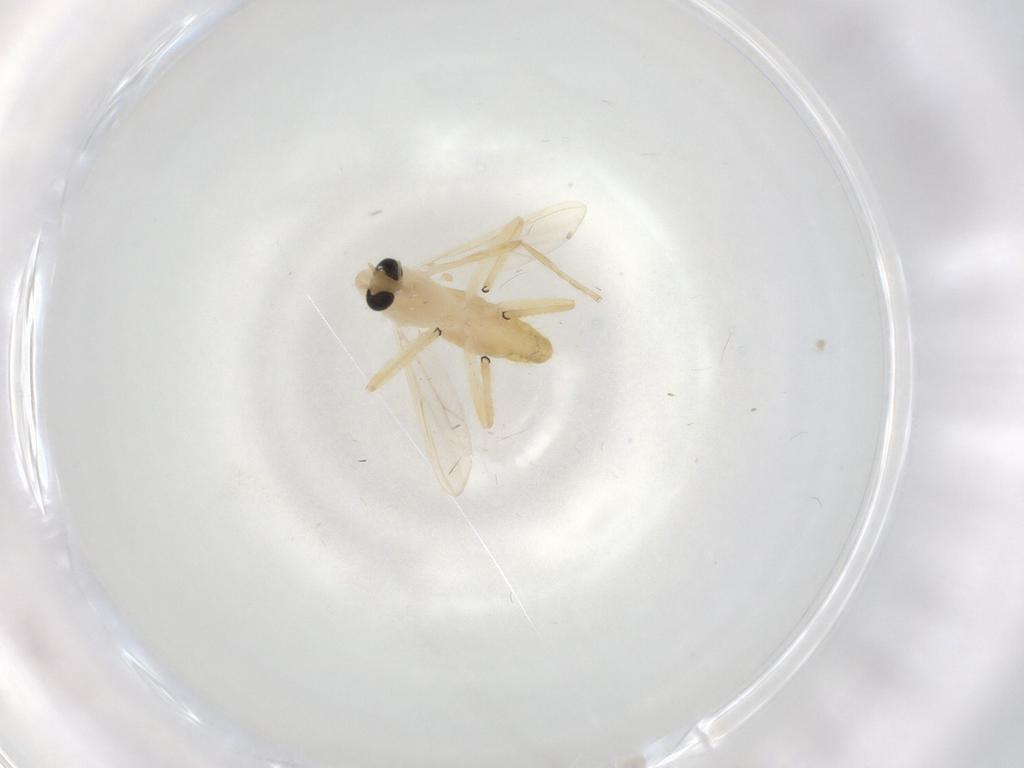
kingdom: Animalia
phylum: Arthropoda
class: Insecta
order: Diptera
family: Chironomidae
